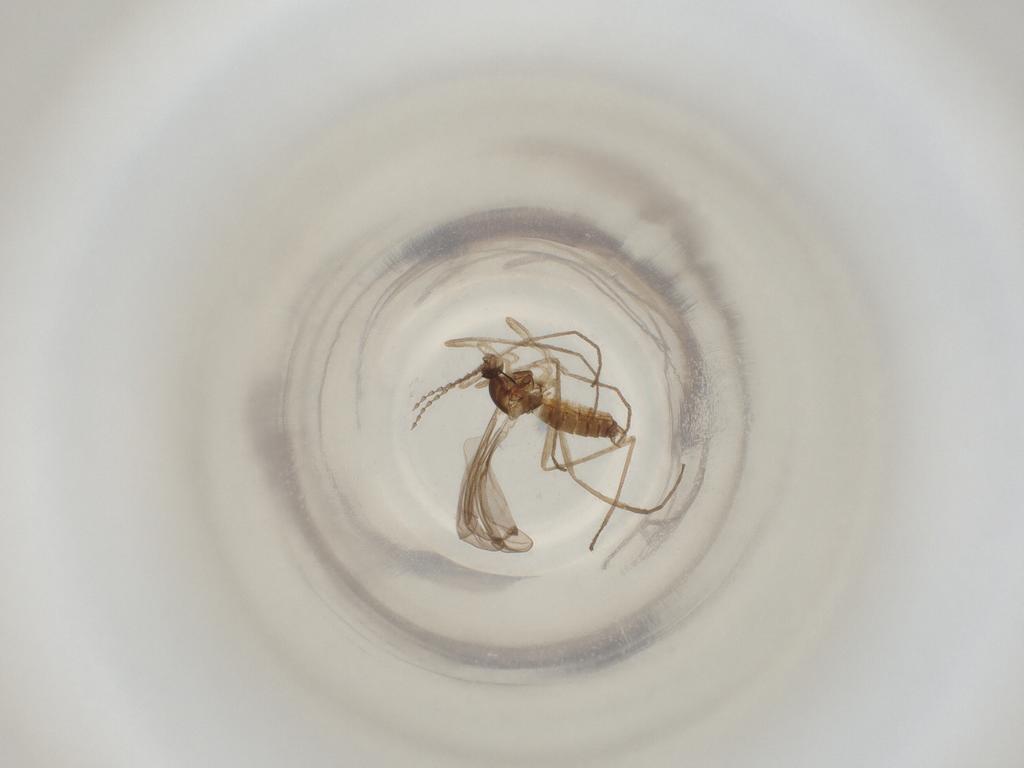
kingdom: Animalia
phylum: Arthropoda
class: Insecta
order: Diptera
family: Cecidomyiidae
